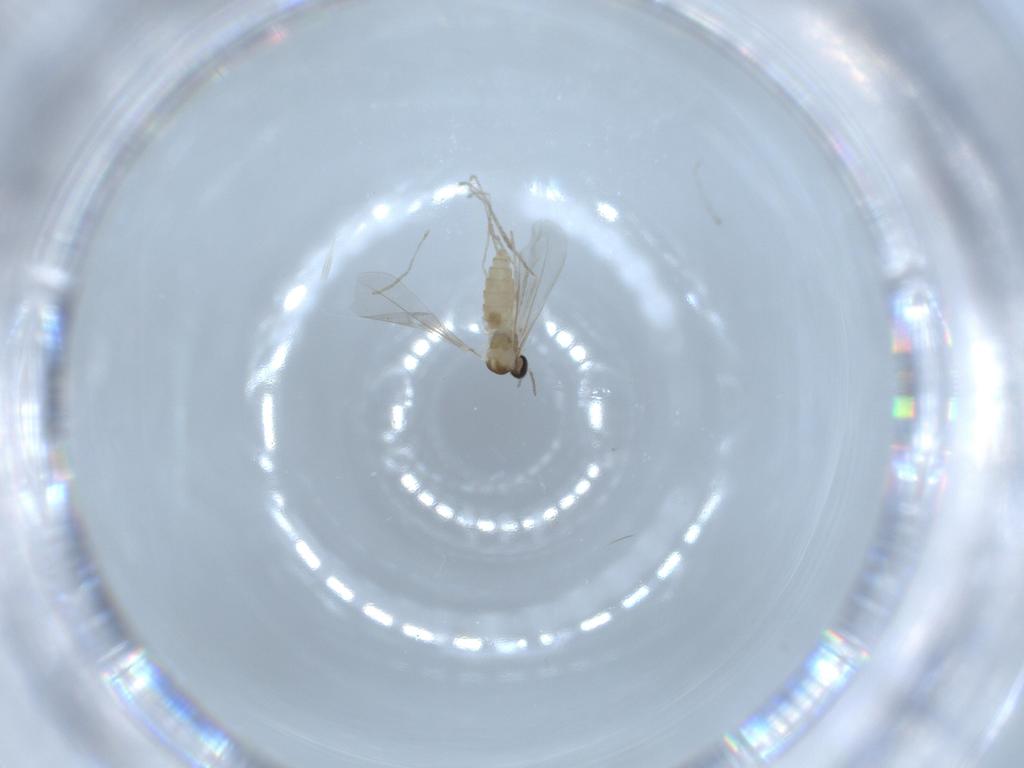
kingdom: Animalia
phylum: Arthropoda
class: Insecta
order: Diptera
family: Cecidomyiidae
